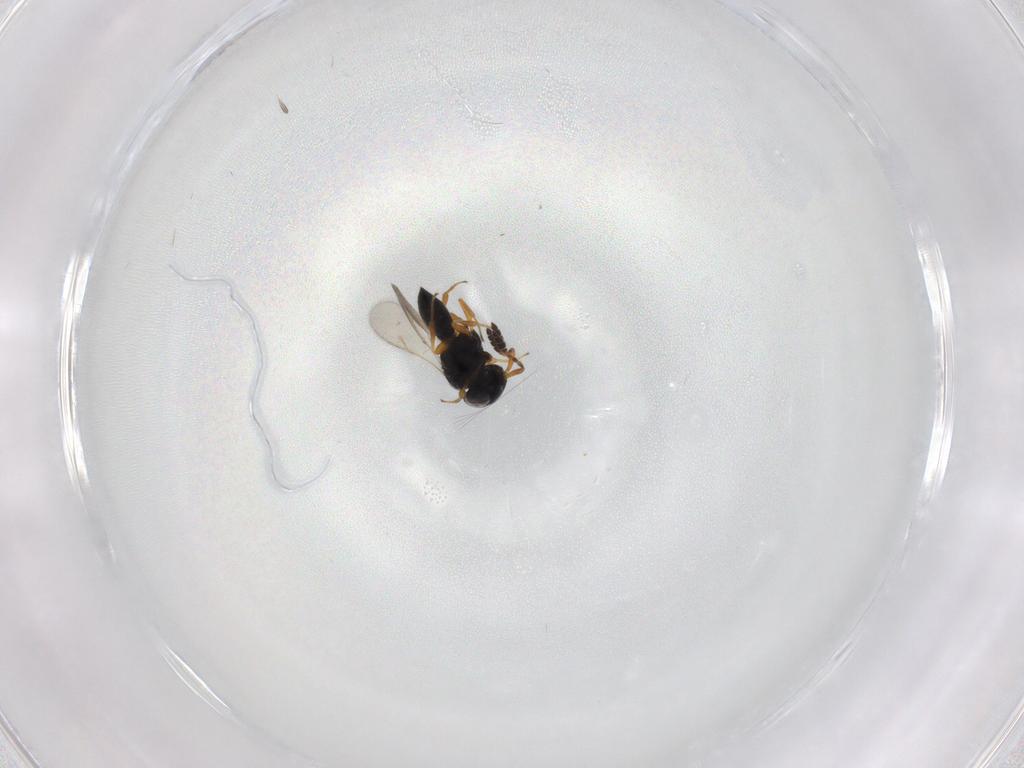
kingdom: Animalia
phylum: Arthropoda
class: Insecta
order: Hymenoptera
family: Scelionidae
